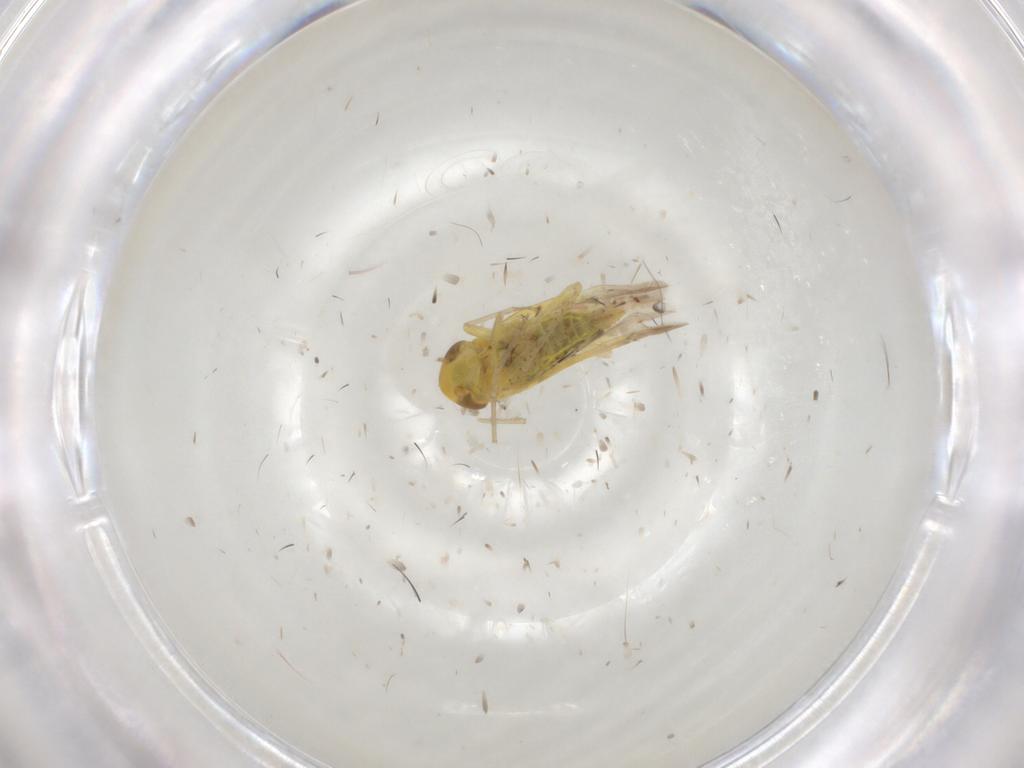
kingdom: Animalia
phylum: Arthropoda
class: Insecta
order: Hemiptera
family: Cicadellidae
